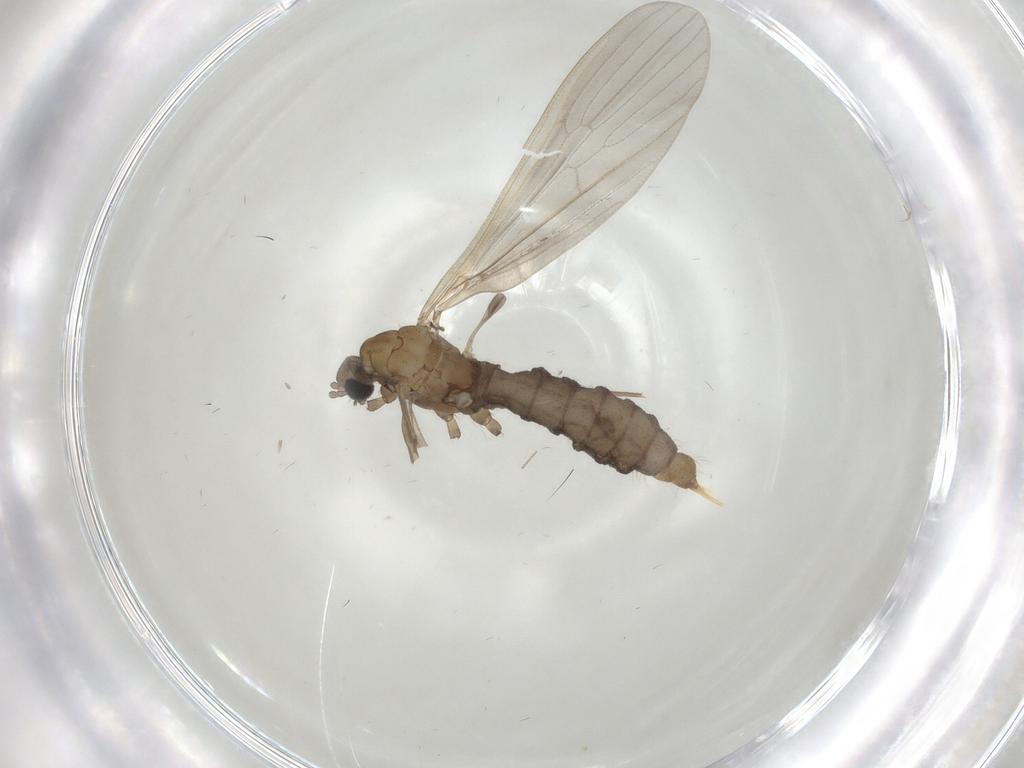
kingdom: Animalia
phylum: Arthropoda
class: Insecta
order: Diptera
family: Limoniidae
